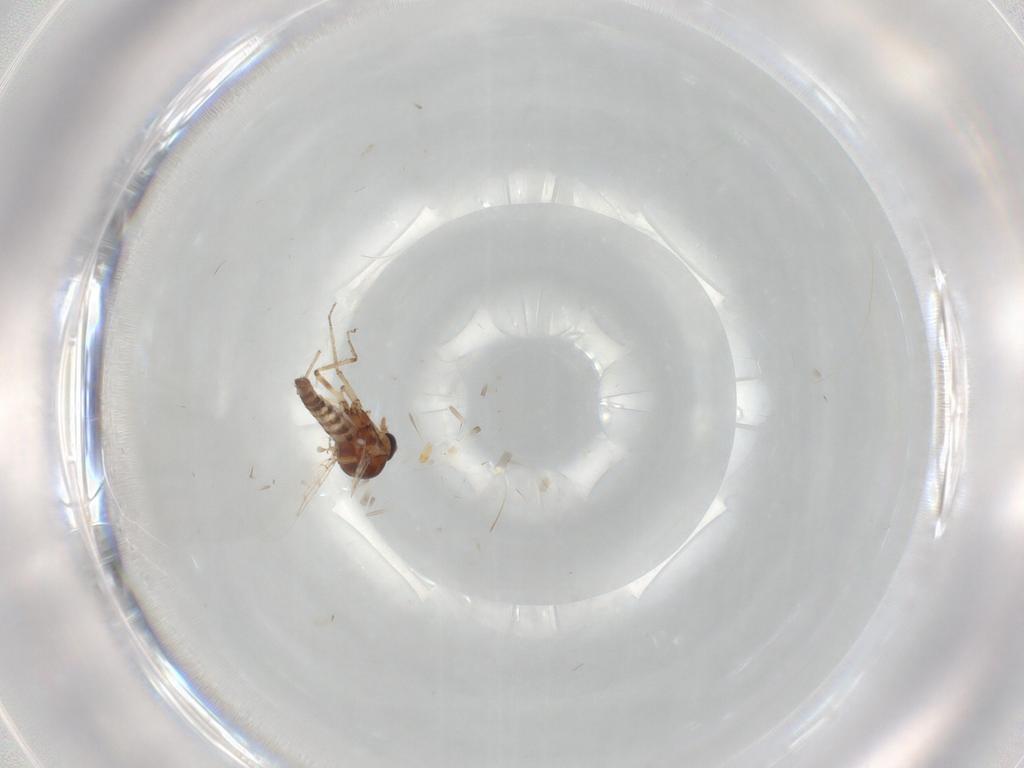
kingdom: Animalia
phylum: Arthropoda
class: Insecta
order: Diptera
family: Ceratopogonidae
